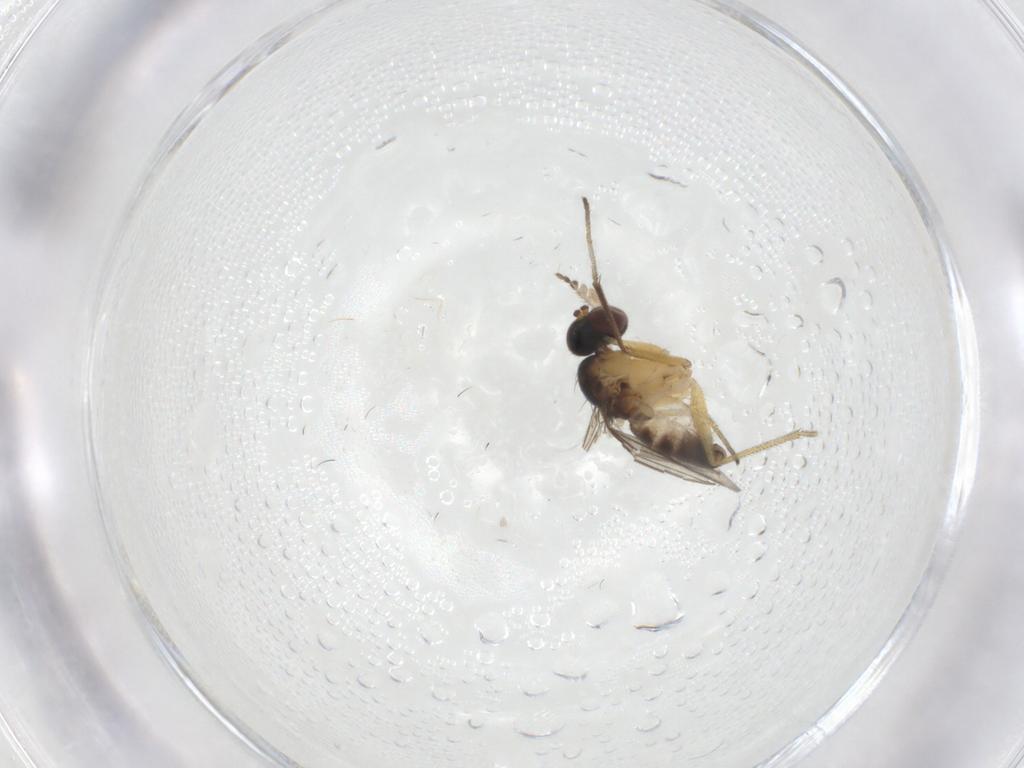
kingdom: Animalia
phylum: Arthropoda
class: Insecta
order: Diptera
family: Dolichopodidae
